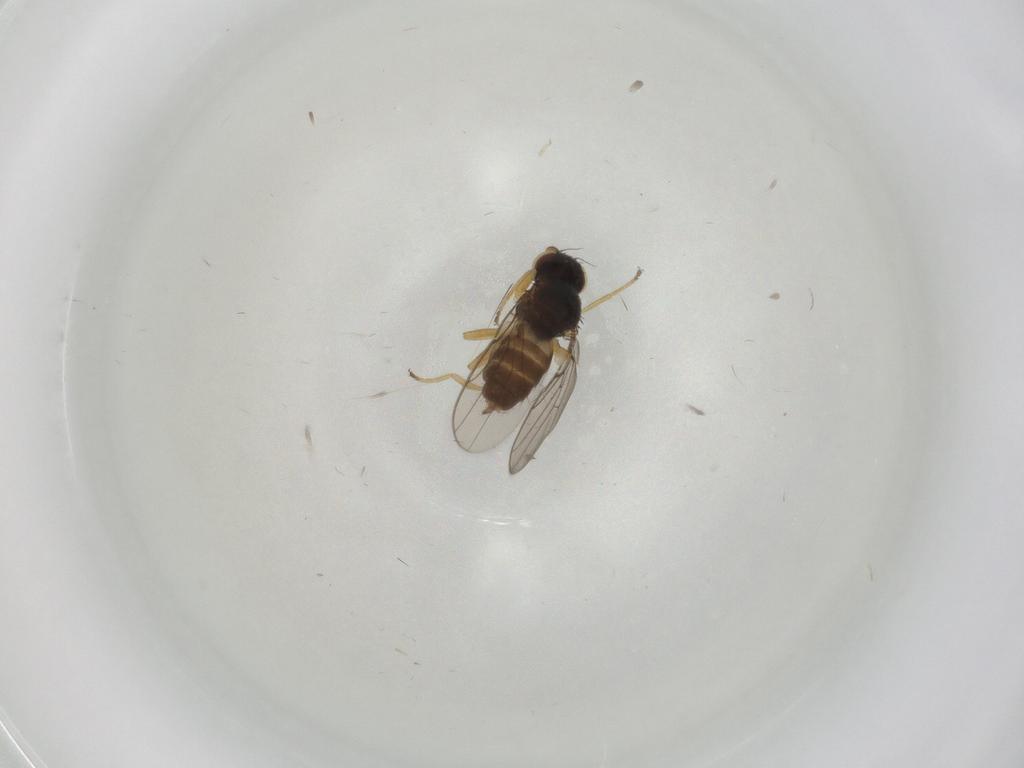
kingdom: Animalia
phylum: Arthropoda
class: Insecta
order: Diptera
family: Chloropidae
